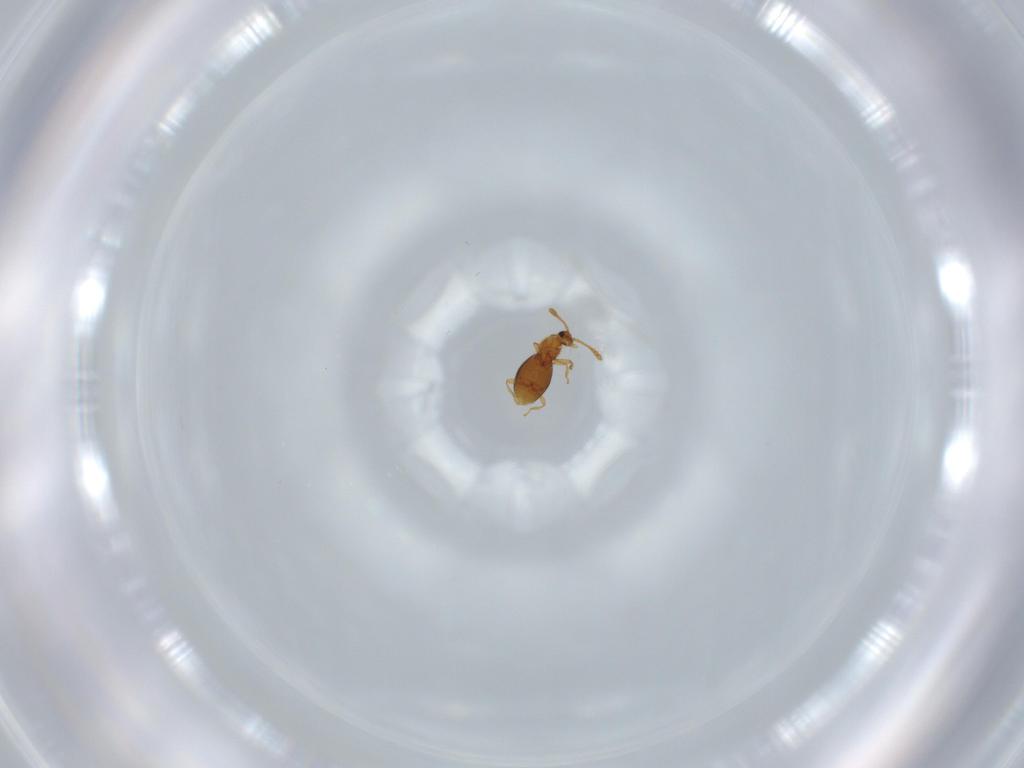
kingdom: Animalia
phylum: Arthropoda
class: Insecta
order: Coleoptera
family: Staphylinidae
